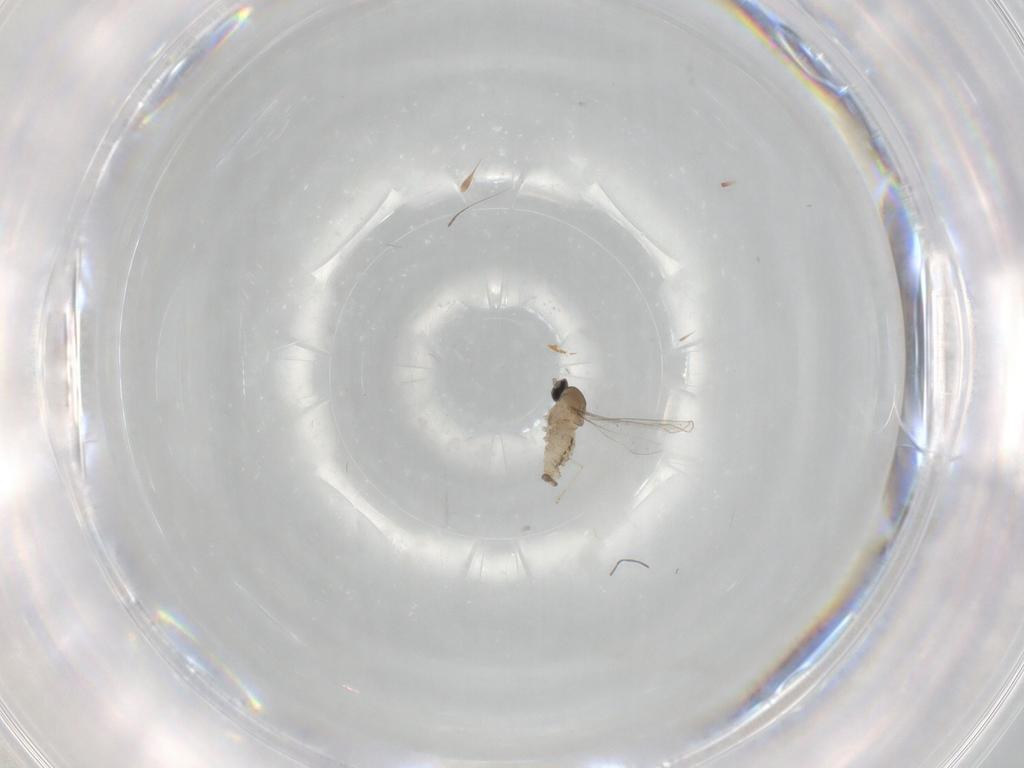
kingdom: Animalia
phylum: Arthropoda
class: Insecta
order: Diptera
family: Cecidomyiidae
